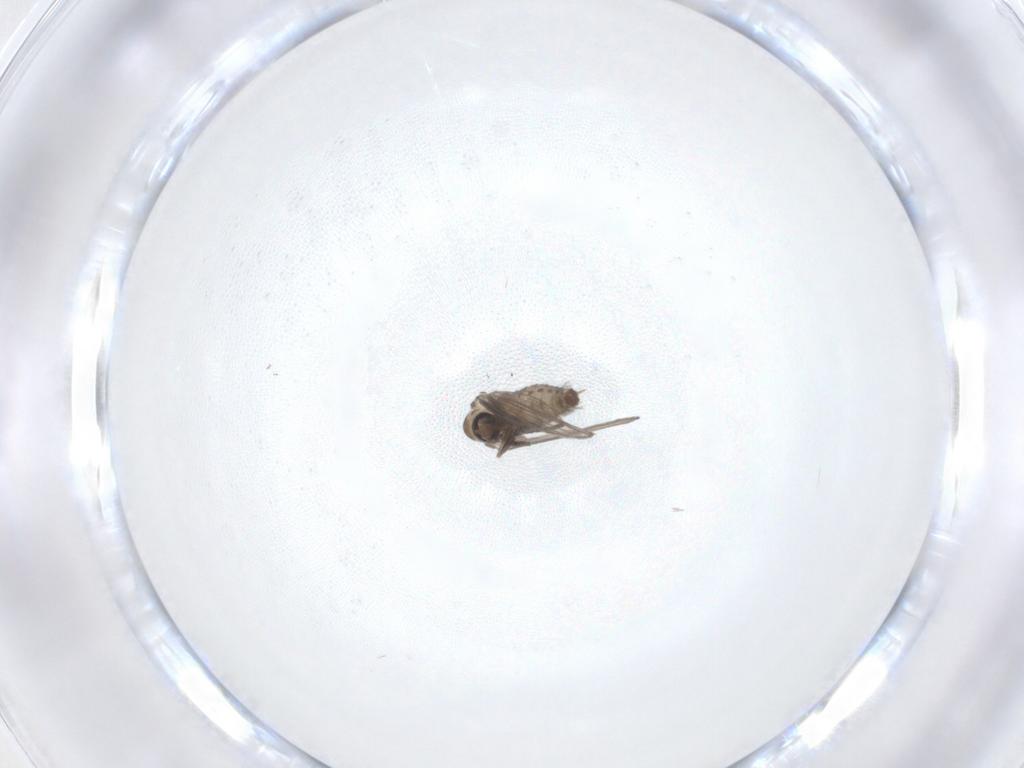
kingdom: Animalia
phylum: Arthropoda
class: Insecta
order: Diptera
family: Psychodidae
